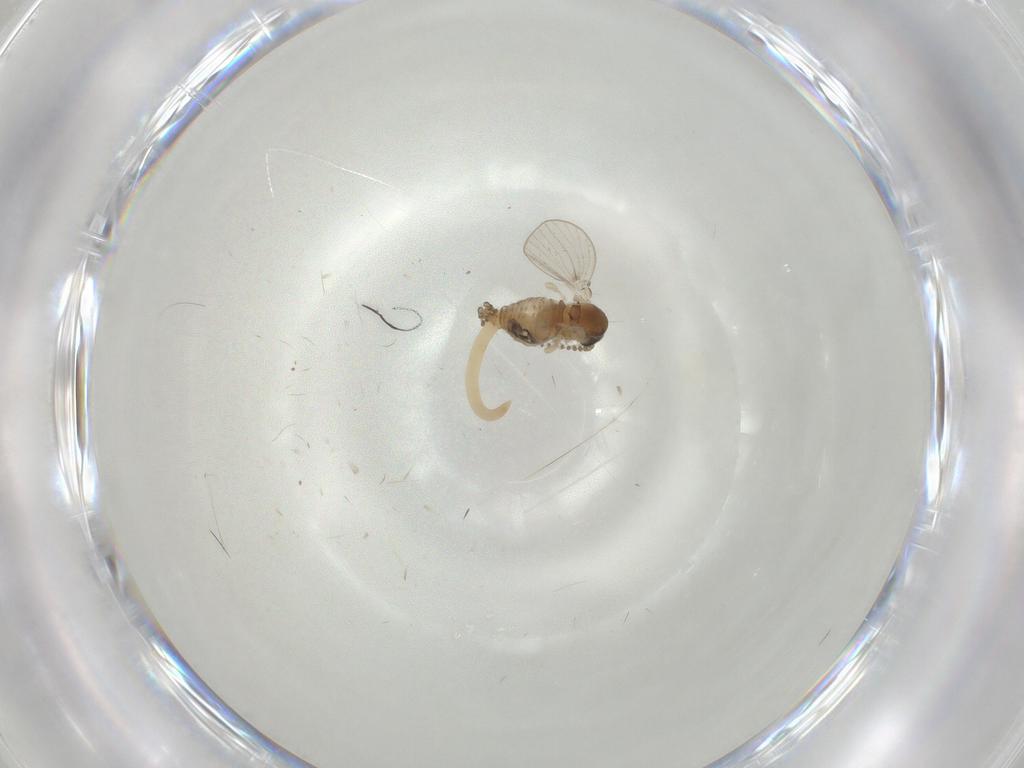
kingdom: Animalia
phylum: Arthropoda
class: Insecta
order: Diptera
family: Psychodidae
